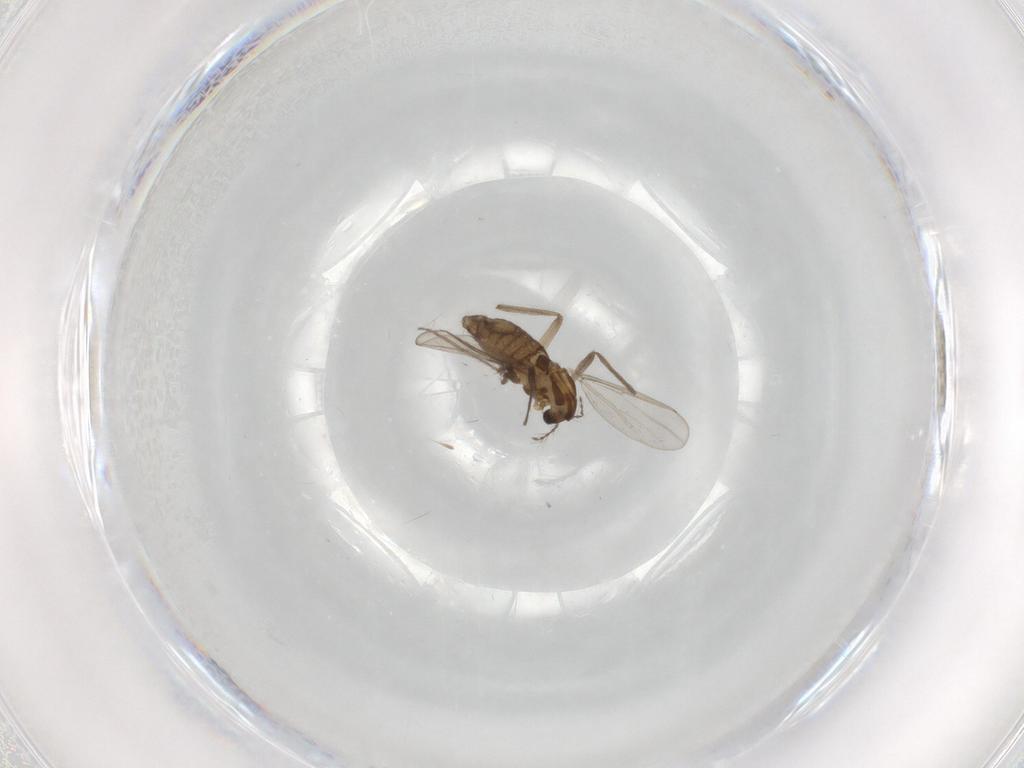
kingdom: Animalia
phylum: Arthropoda
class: Insecta
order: Diptera
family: Chironomidae
